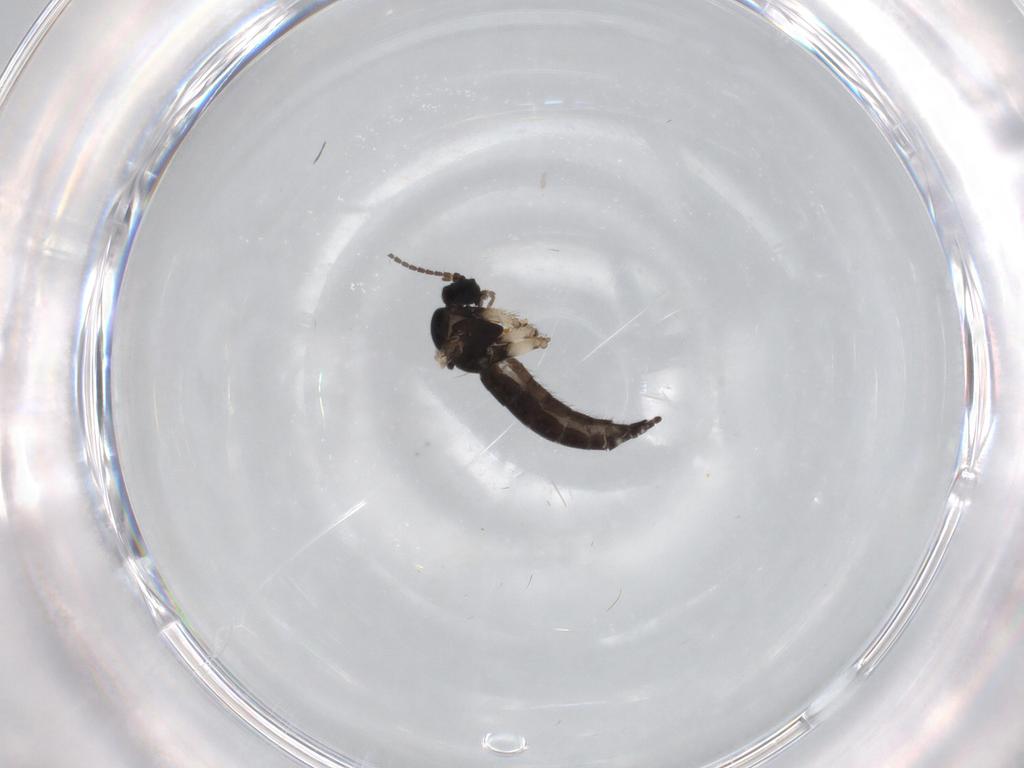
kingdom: Animalia
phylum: Arthropoda
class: Insecta
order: Diptera
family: Sciaridae
